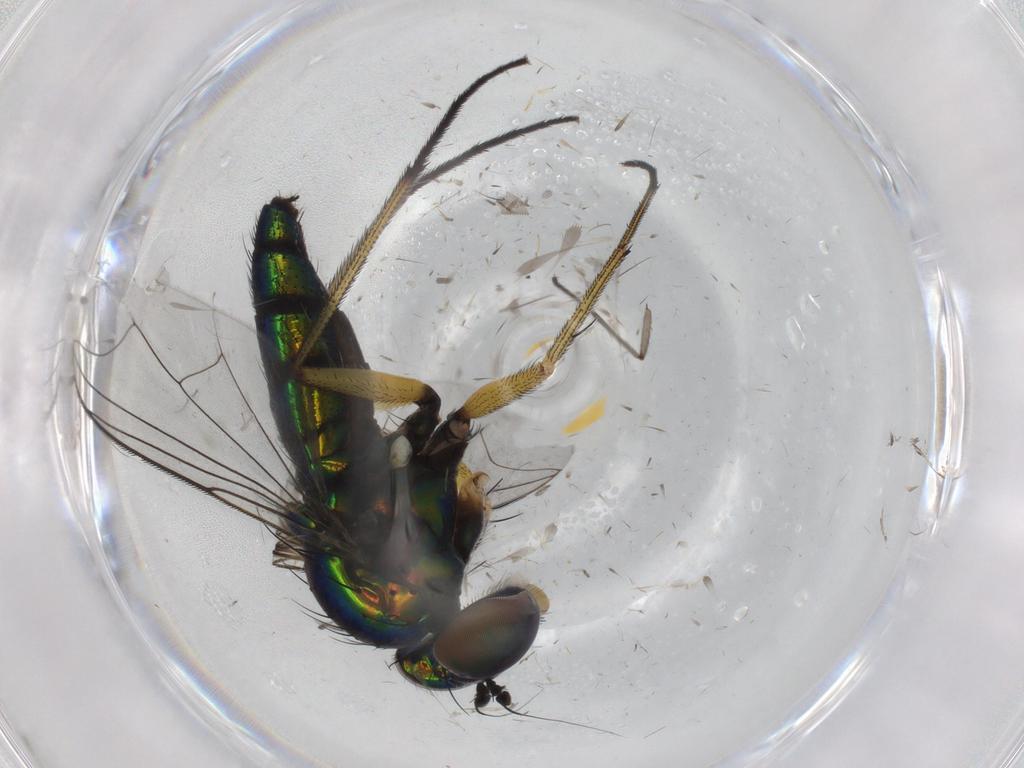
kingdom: Animalia
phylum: Arthropoda
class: Insecta
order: Diptera
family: Dolichopodidae
